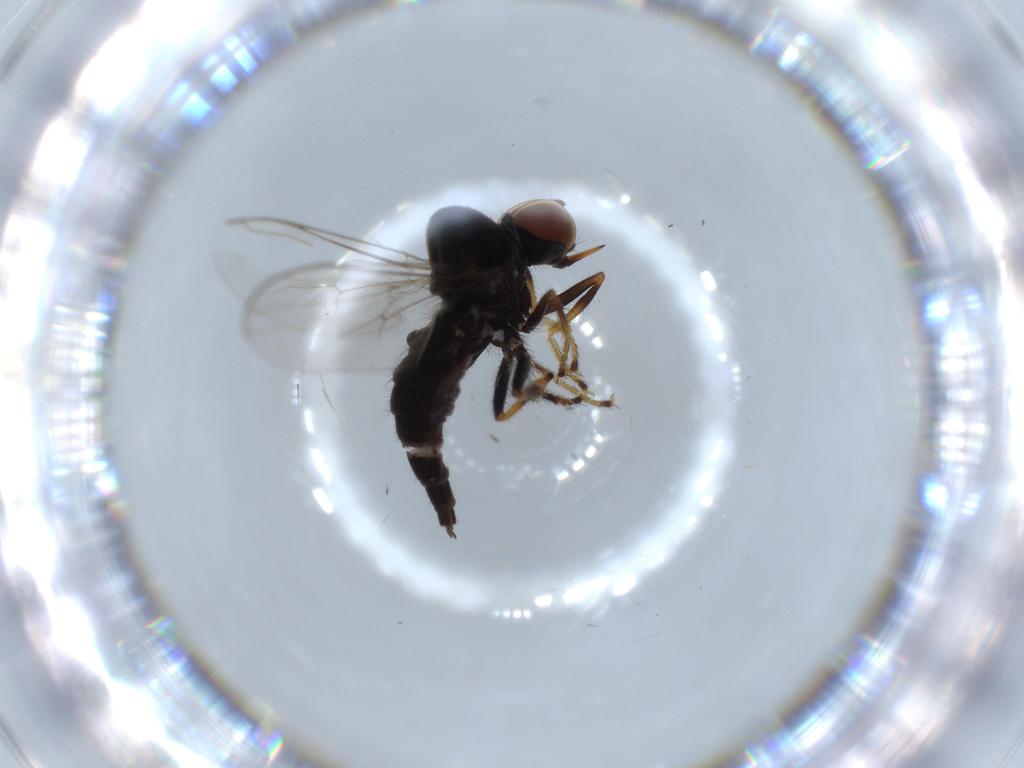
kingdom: Animalia
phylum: Arthropoda
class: Insecta
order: Diptera
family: Hybotidae
